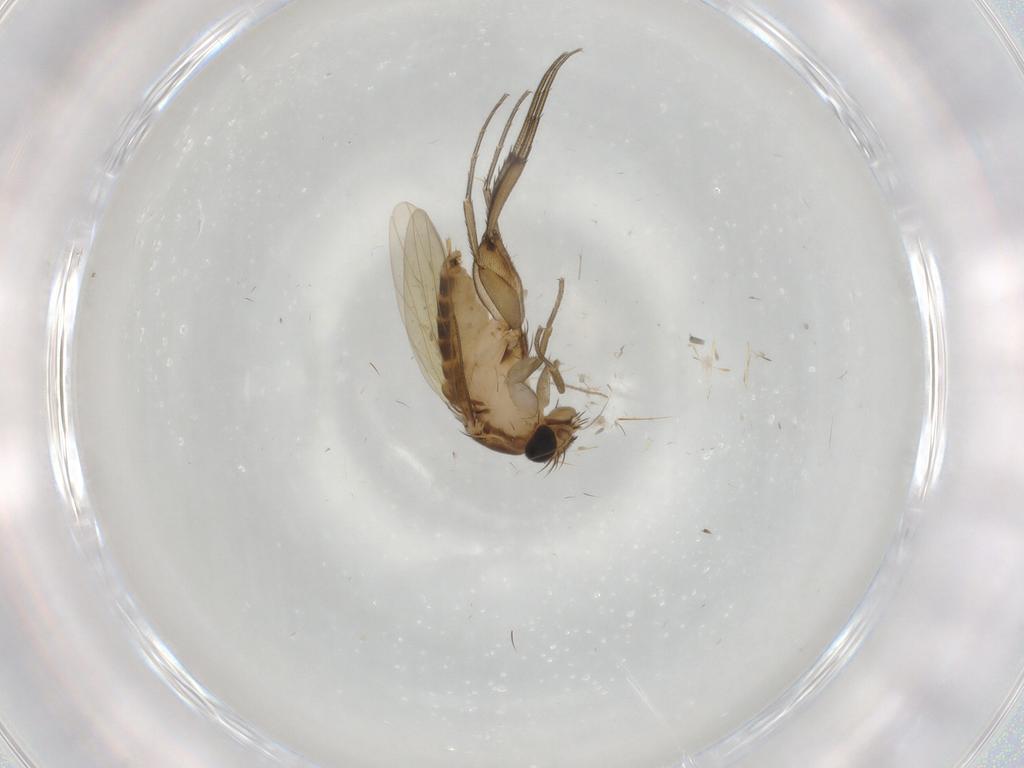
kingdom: Animalia
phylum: Arthropoda
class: Insecta
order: Diptera
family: Phoridae
